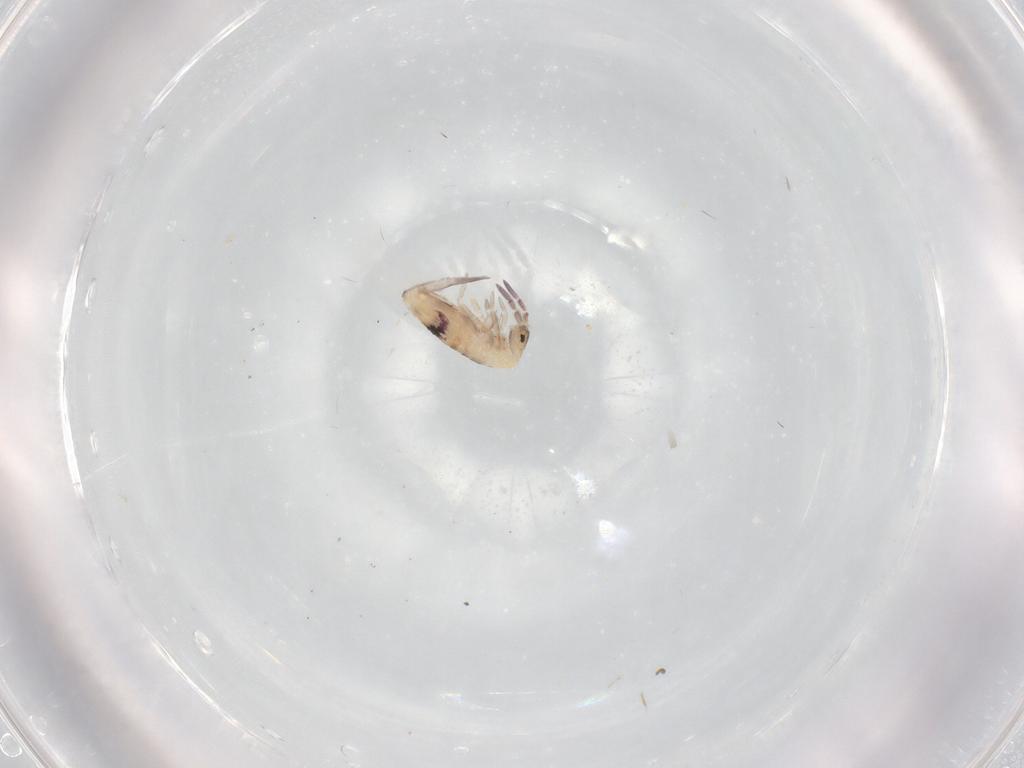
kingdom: Animalia
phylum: Arthropoda
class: Collembola
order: Entomobryomorpha
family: Entomobryidae
